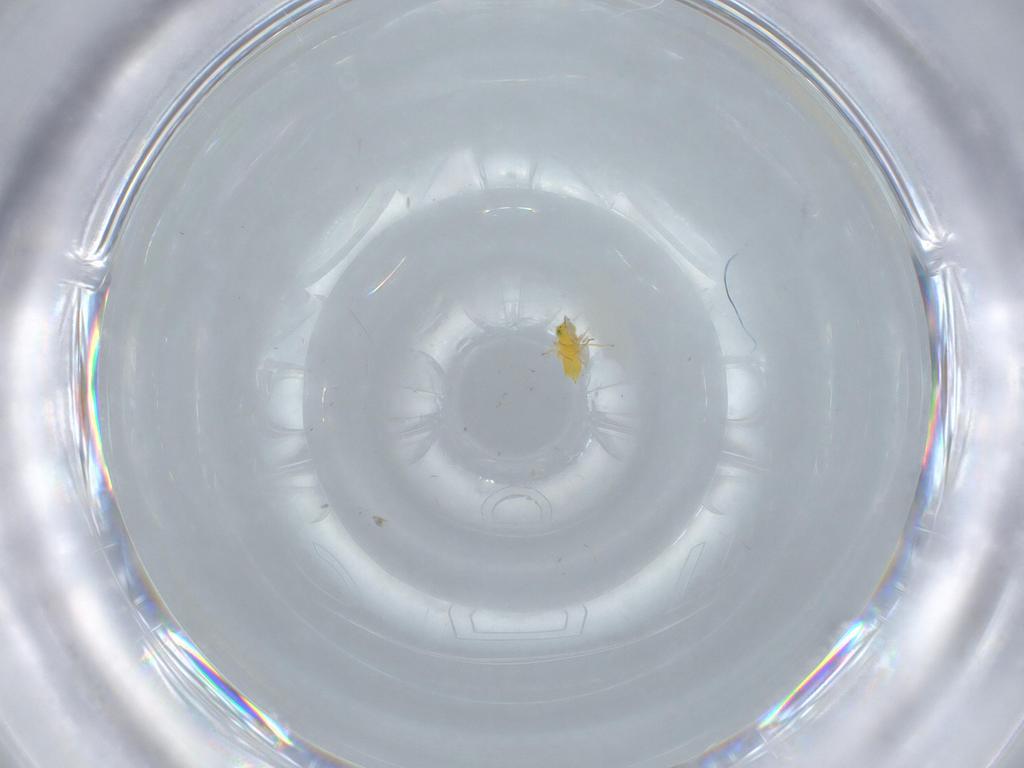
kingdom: Animalia
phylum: Arthropoda
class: Insecta
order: Hymenoptera
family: Aphelinidae
